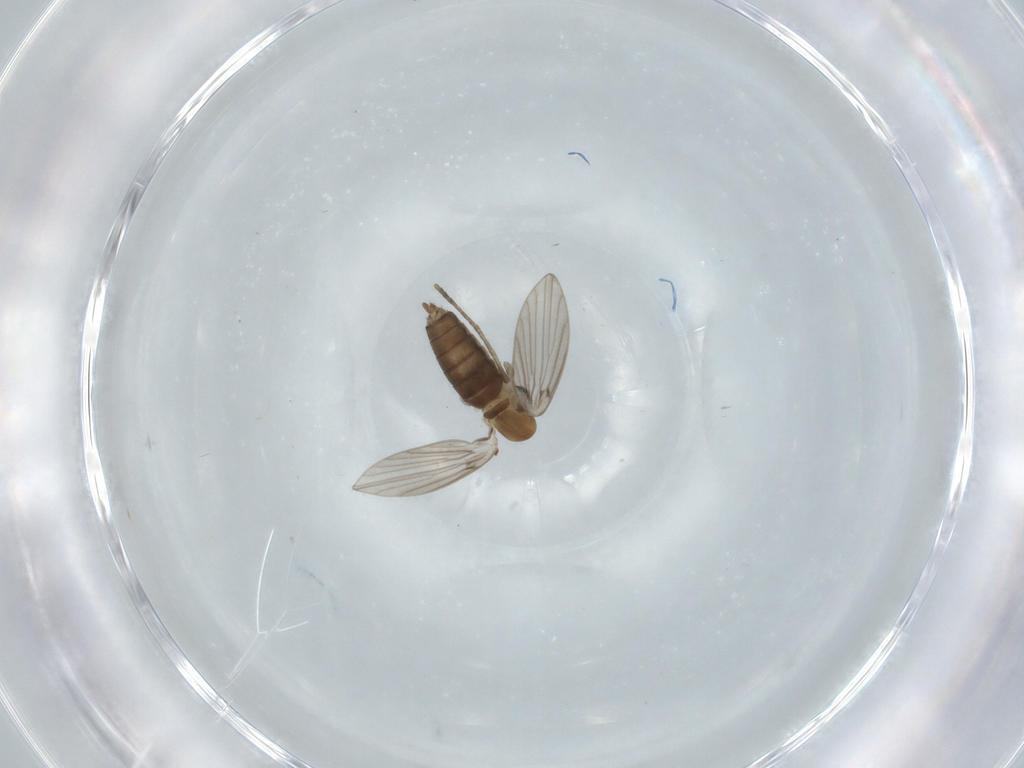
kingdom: Animalia
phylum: Arthropoda
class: Insecta
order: Diptera
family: Psychodidae
